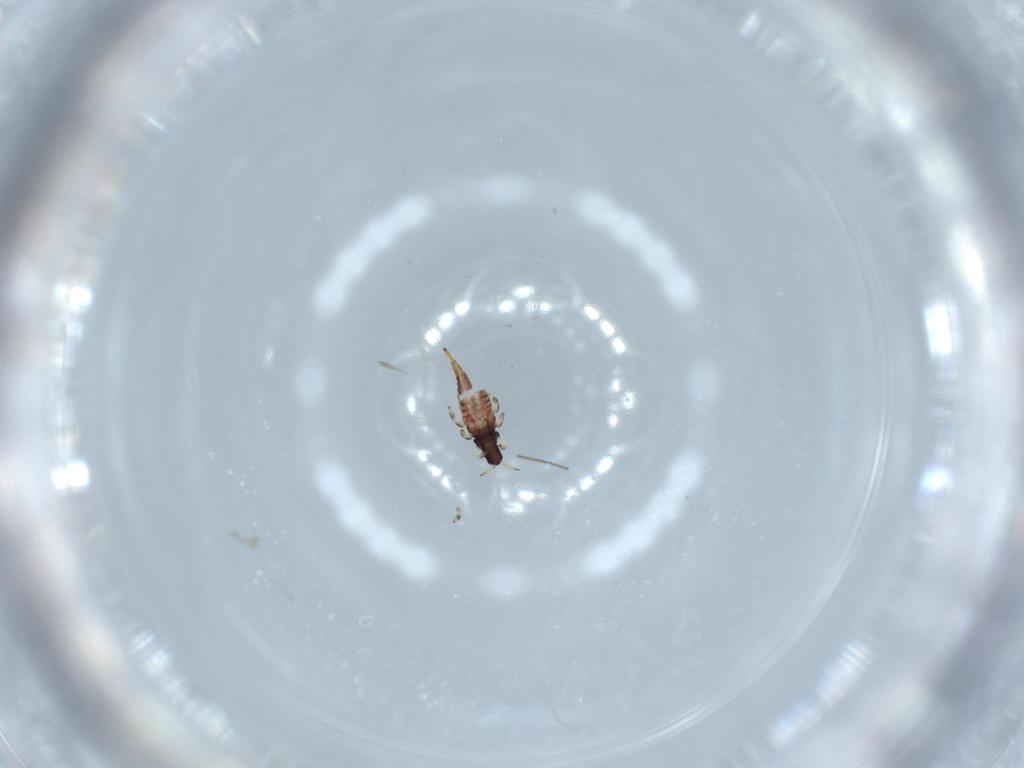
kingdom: Animalia
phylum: Arthropoda
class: Insecta
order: Thysanoptera
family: Phlaeothripidae
